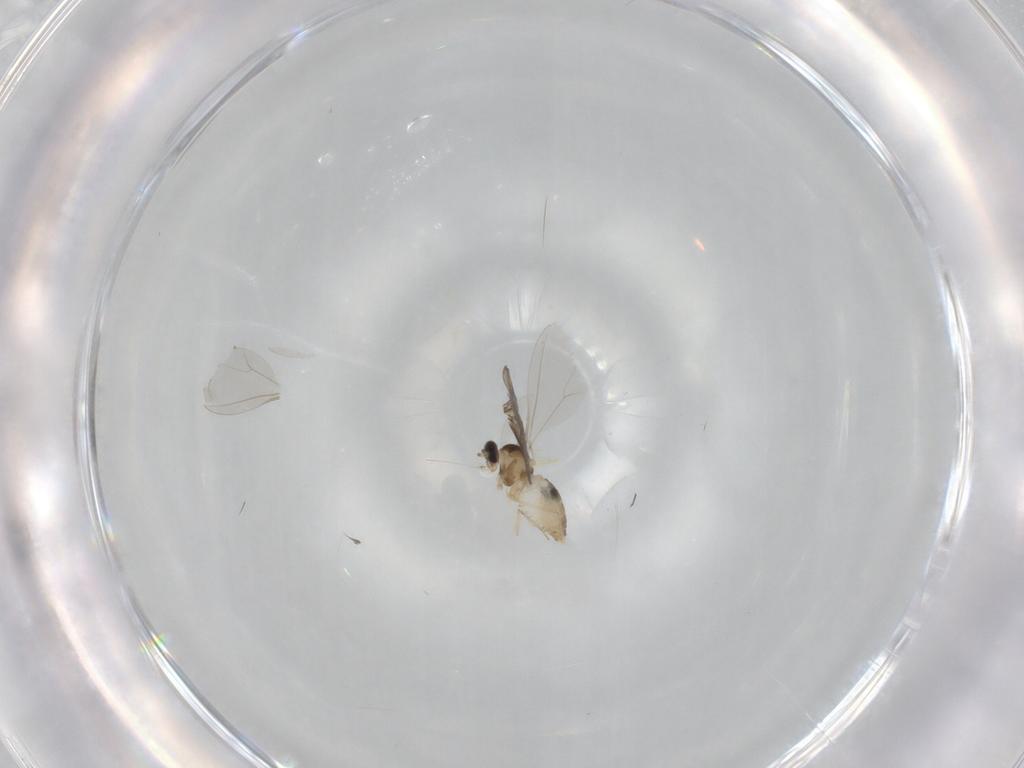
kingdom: Animalia
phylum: Arthropoda
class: Insecta
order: Diptera
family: Cecidomyiidae
